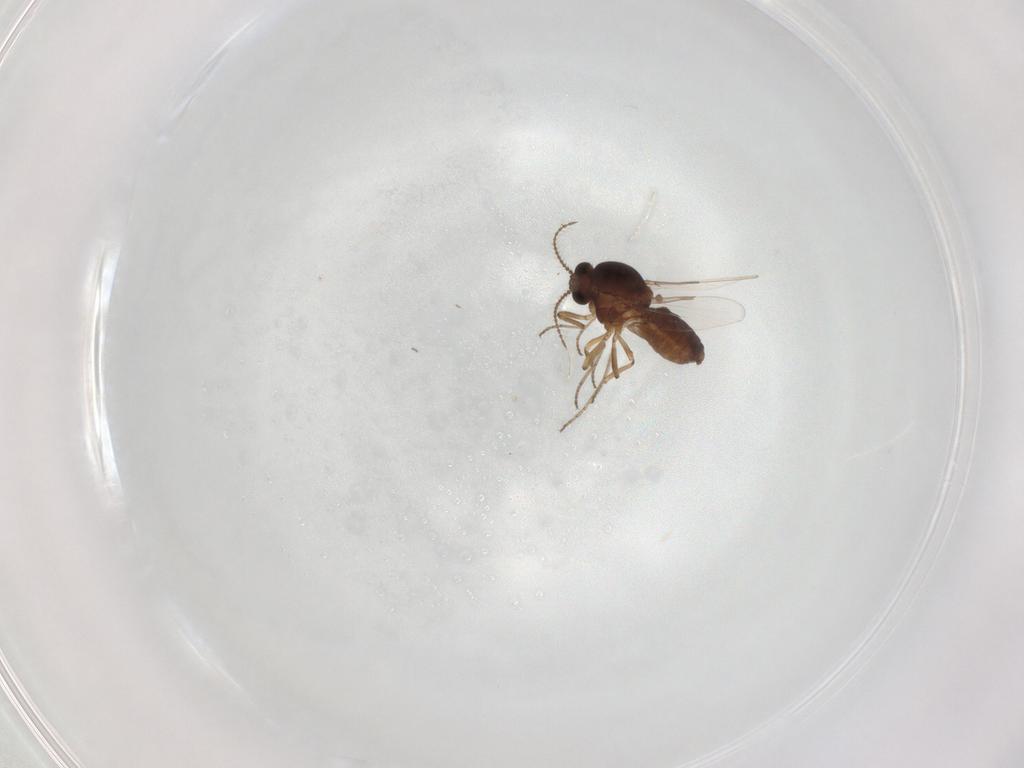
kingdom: Animalia
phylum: Arthropoda
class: Insecta
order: Diptera
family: Ceratopogonidae
